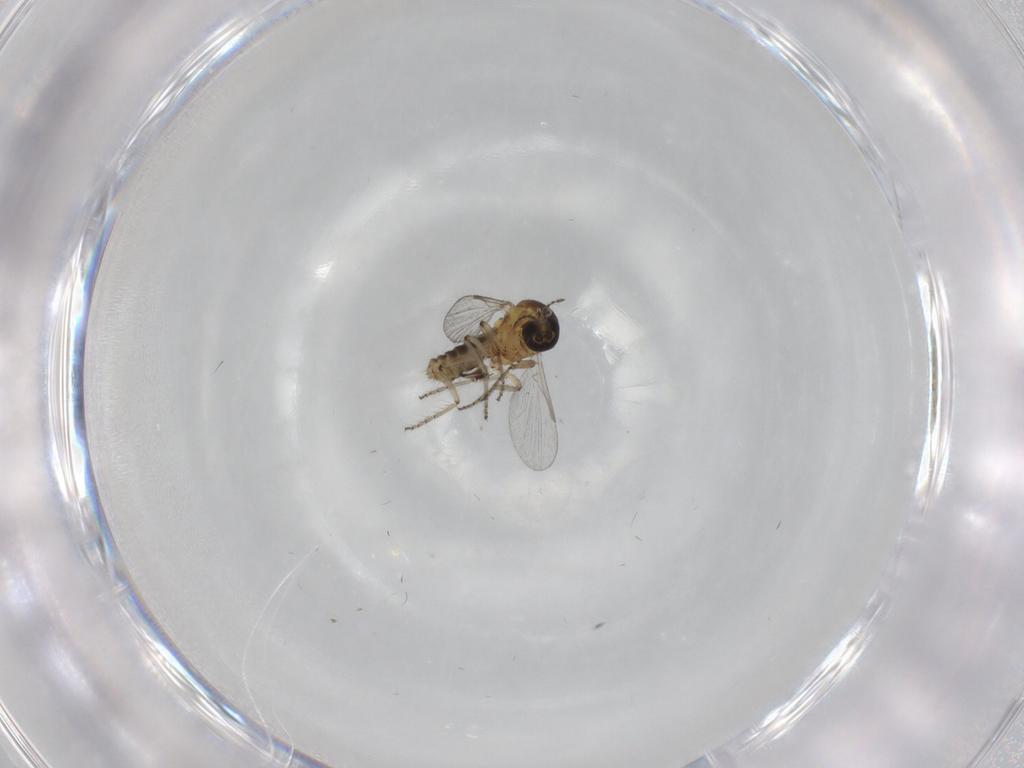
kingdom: Animalia
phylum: Arthropoda
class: Insecta
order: Diptera
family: Ceratopogonidae
